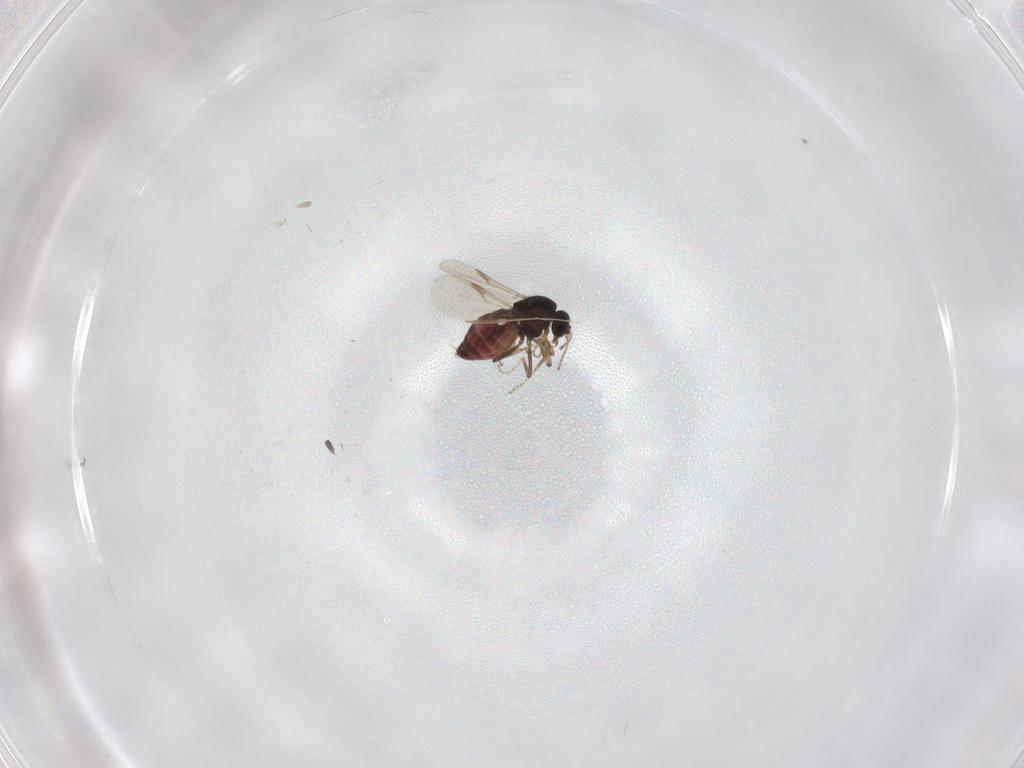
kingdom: Animalia
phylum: Arthropoda
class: Insecta
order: Diptera
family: Ceratopogonidae
